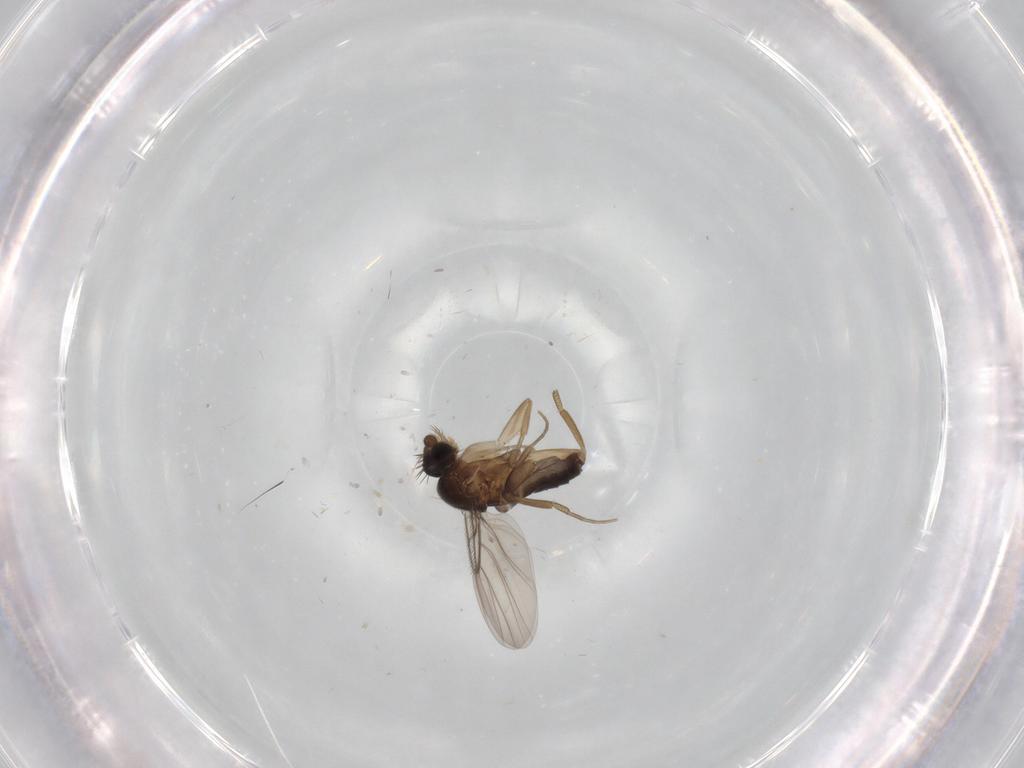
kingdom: Animalia
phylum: Arthropoda
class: Insecta
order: Diptera
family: Phoridae
